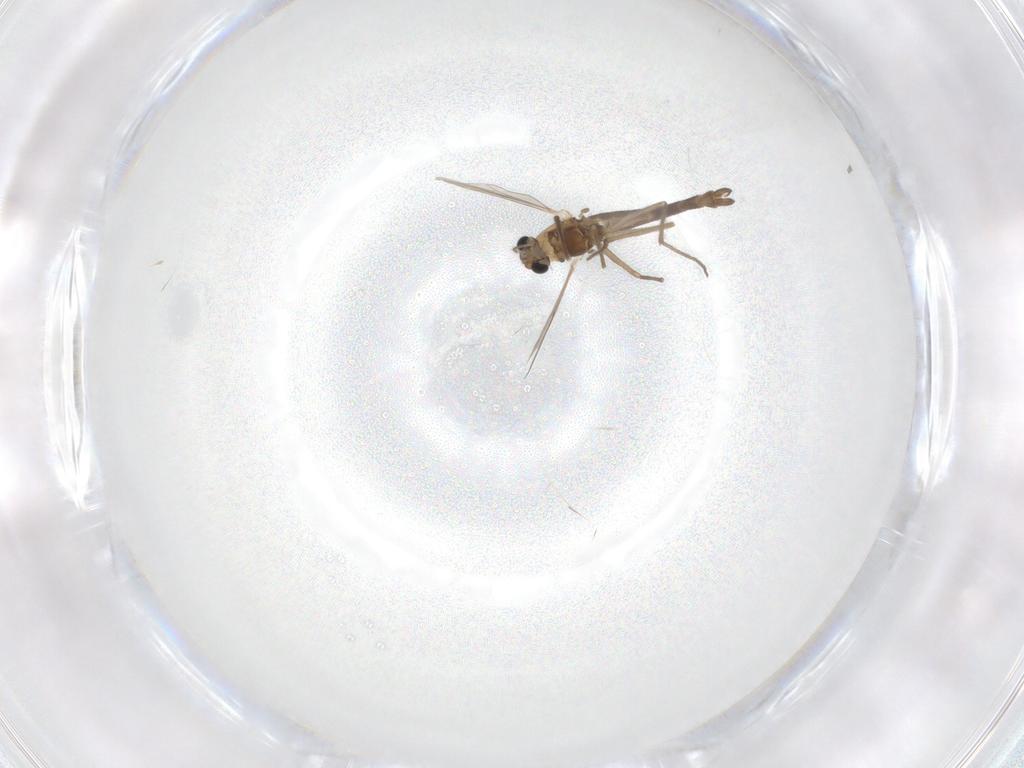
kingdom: Animalia
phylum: Arthropoda
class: Insecta
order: Diptera
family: Chironomidae
